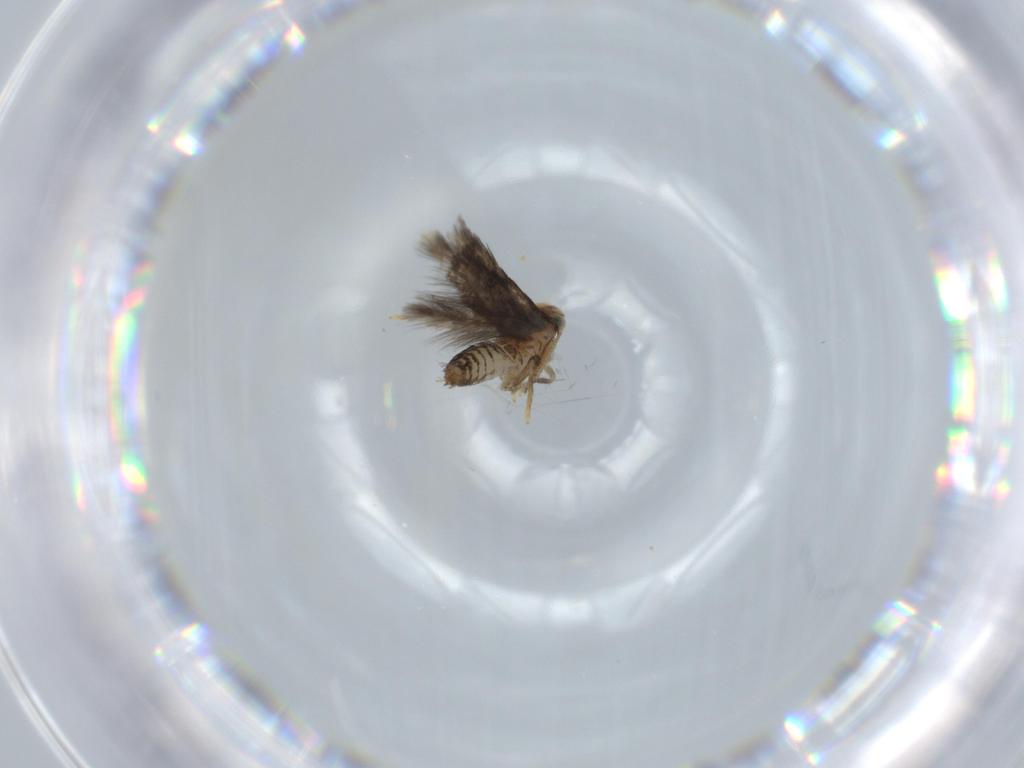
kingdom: Animalia
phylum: Arthropoda
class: Insecta
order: Lepidoptera
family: Nepticulidae
